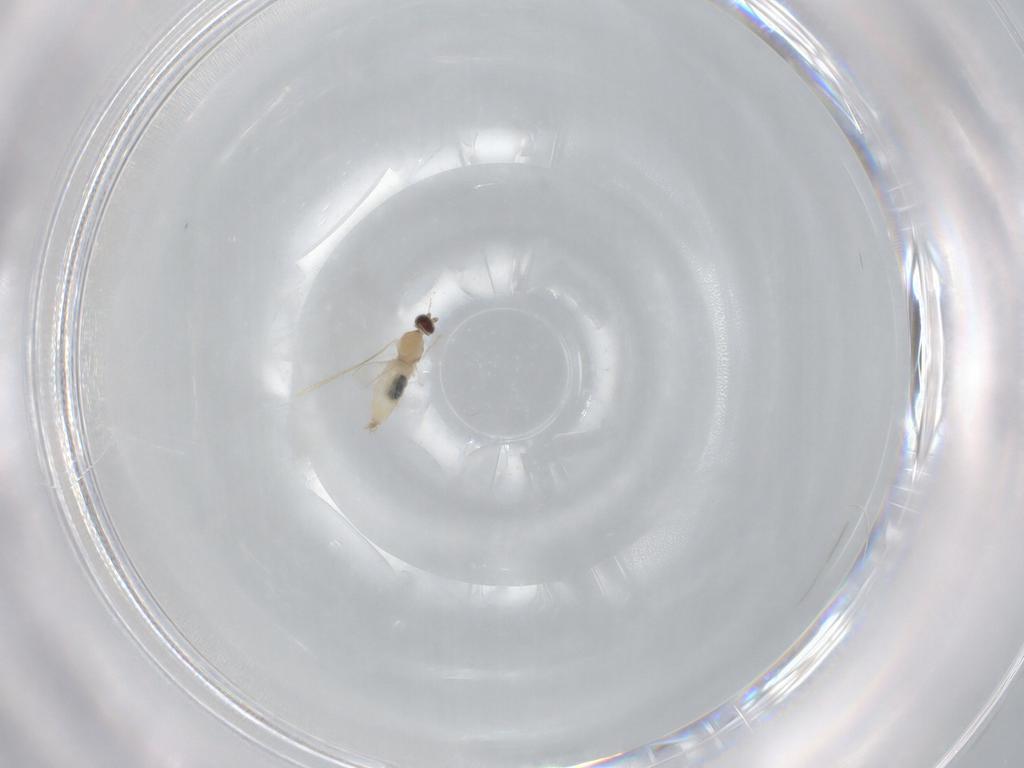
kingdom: Animalia
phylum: Arthropoda
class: Insecta
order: Diptera
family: Cecidomyiidae
